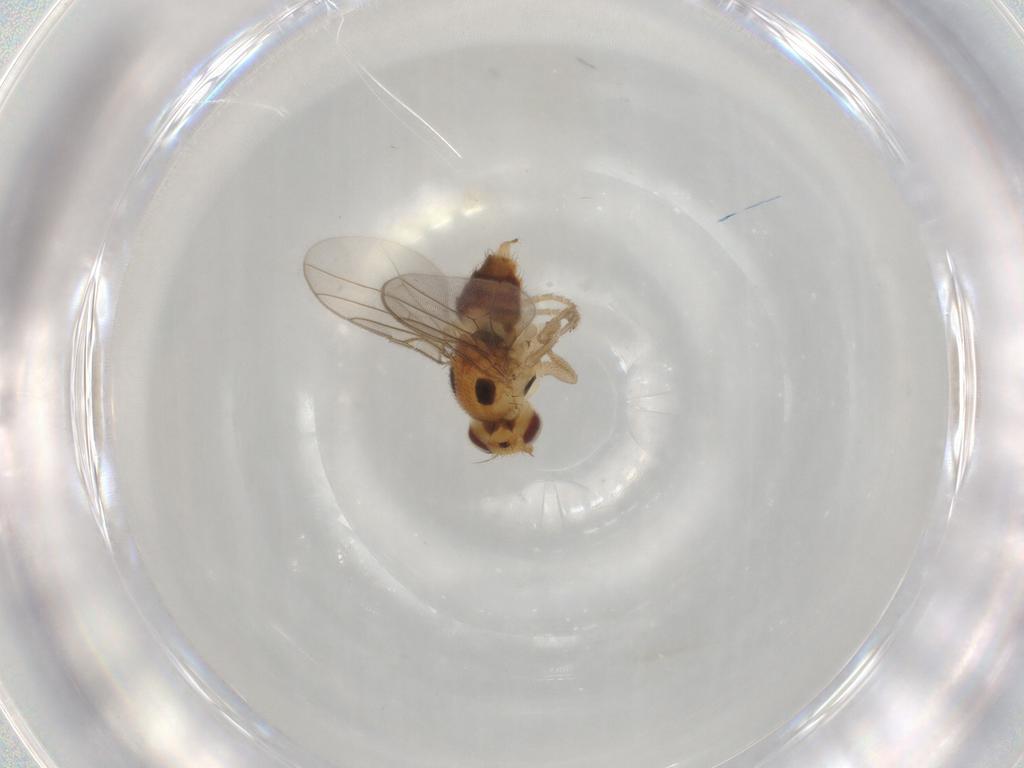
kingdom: Animalia
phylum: Arthropoda
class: Insecta
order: Diptera
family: Chloropidae
